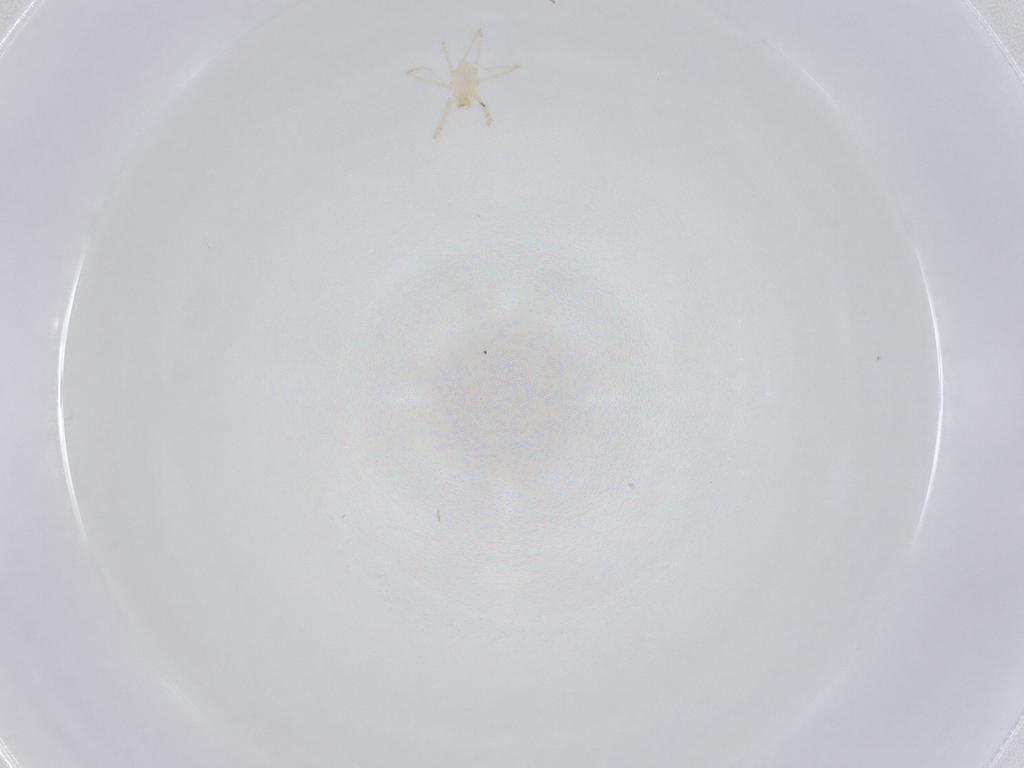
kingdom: Animalia
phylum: Arthropoda
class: Arachnida
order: Trombidiformes
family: Erythraeidae
